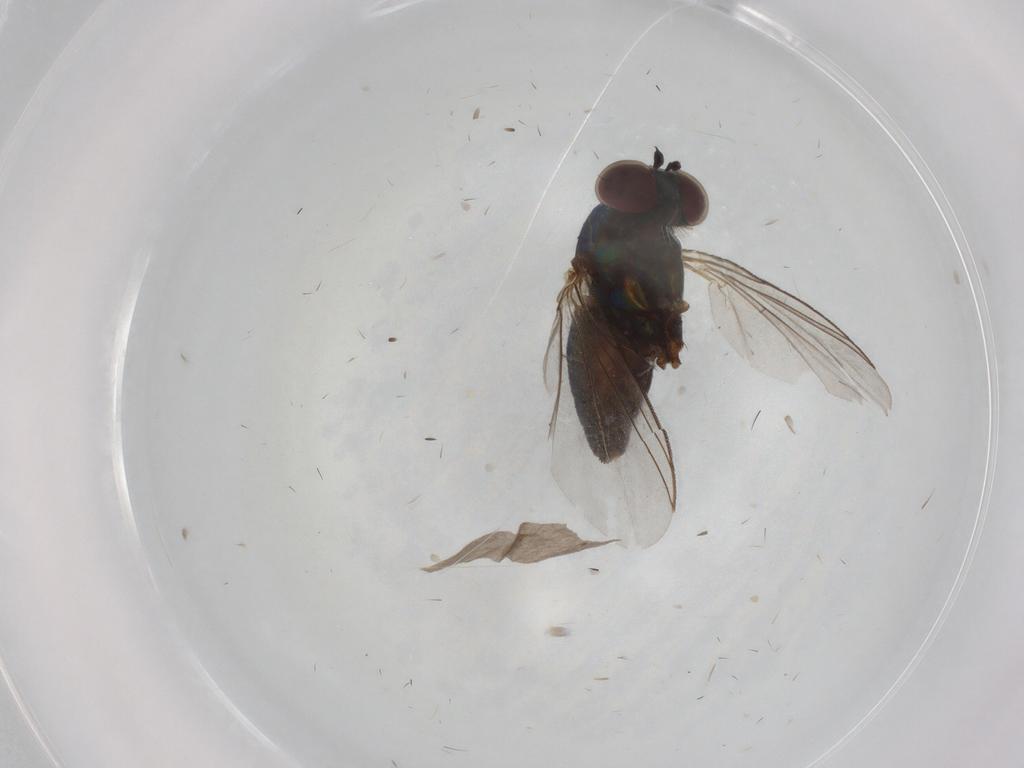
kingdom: Animalia
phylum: Arthropoda
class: Insecta
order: Diptera
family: Dolichopodidae
